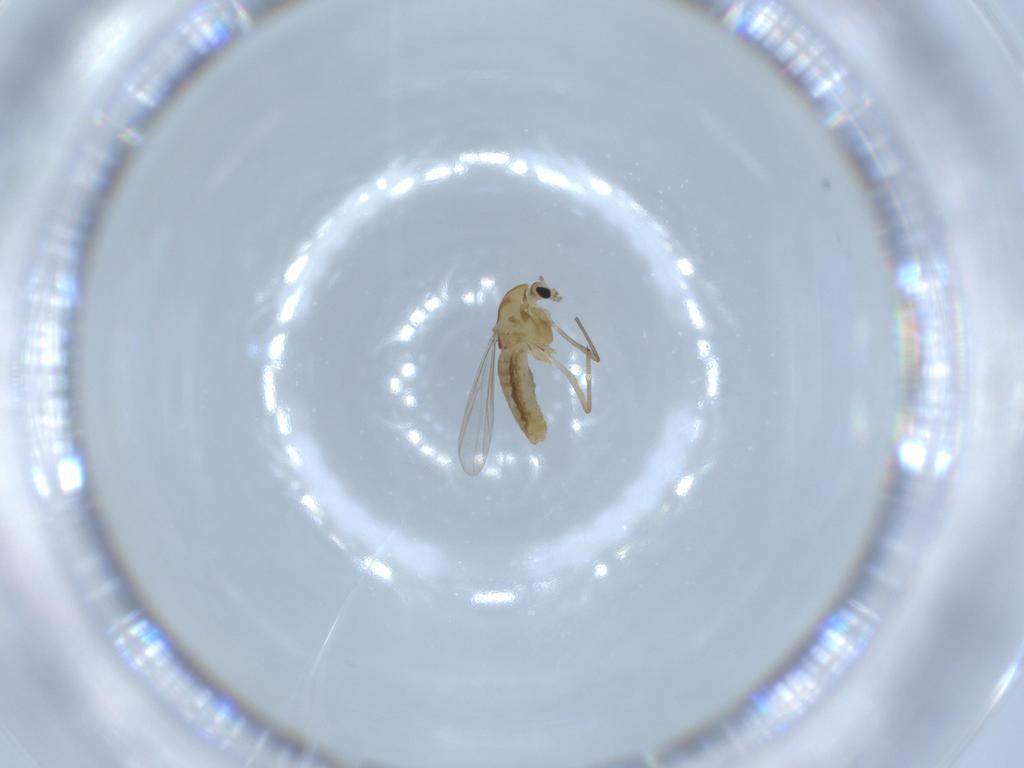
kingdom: Animalia
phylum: Arthropoda
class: Insecta
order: Diptera
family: Chironomidae
